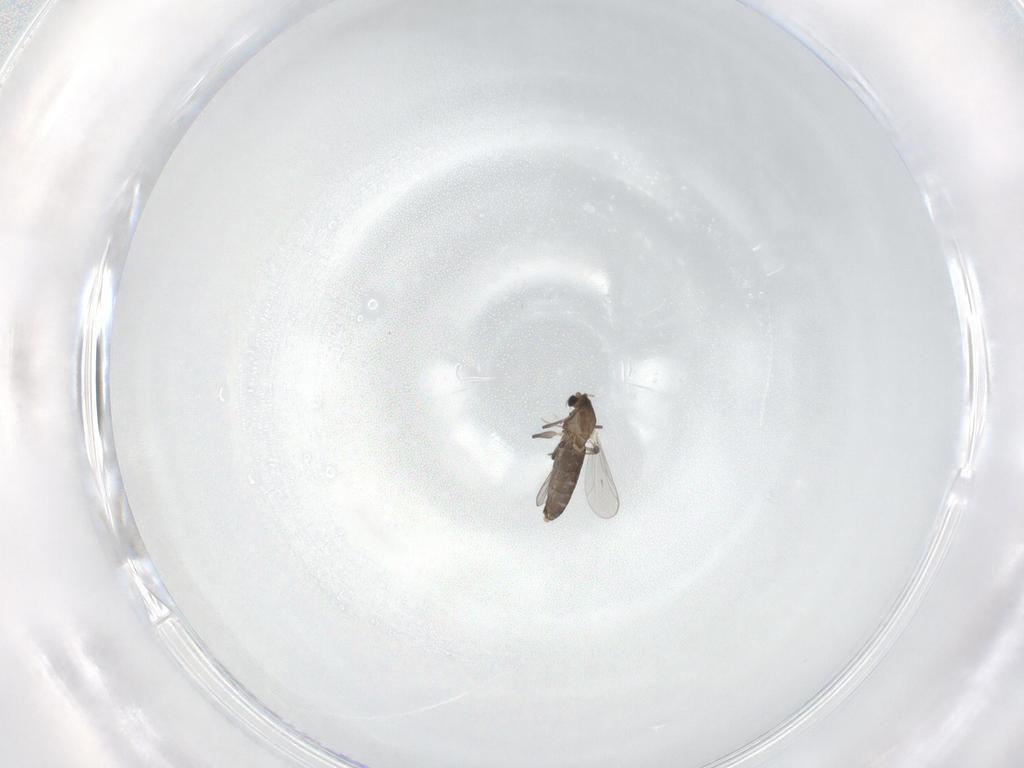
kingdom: Animalia
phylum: Arthropoda
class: Insecta
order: Diptera
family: Chironomidae
